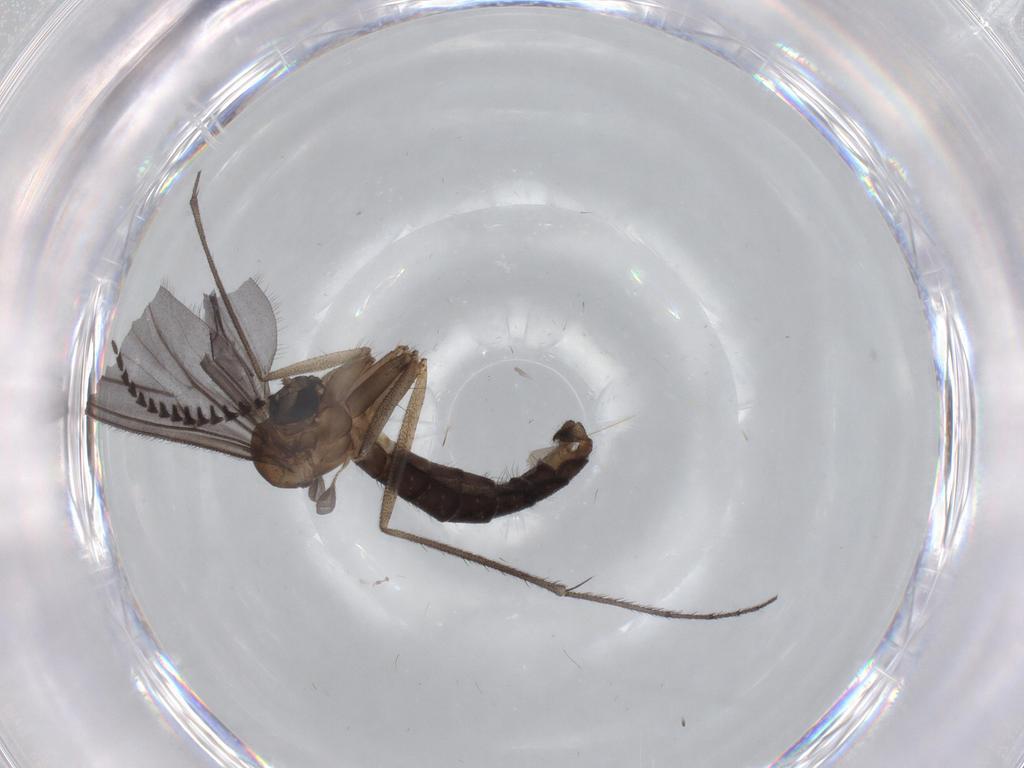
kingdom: Animalia
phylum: Arthropoda
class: Insecta
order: Diptera
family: Ditomyiidae
